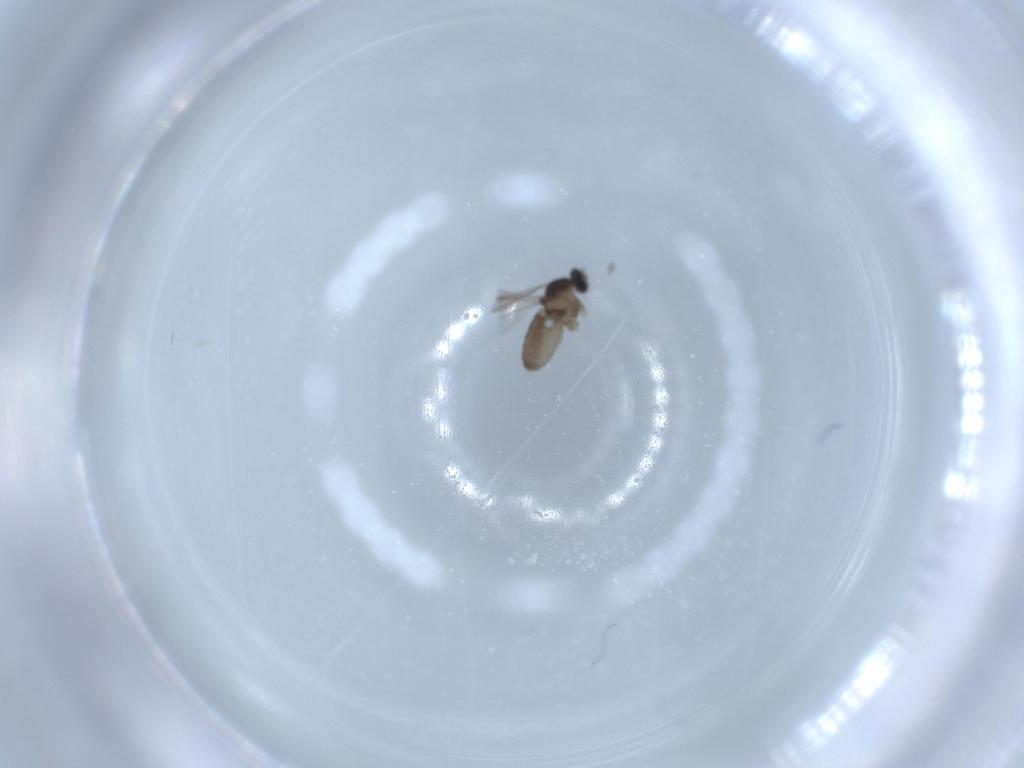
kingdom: Animalia
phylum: Arthropoda
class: Insecta
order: Diptera
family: Cecidomyiidae
